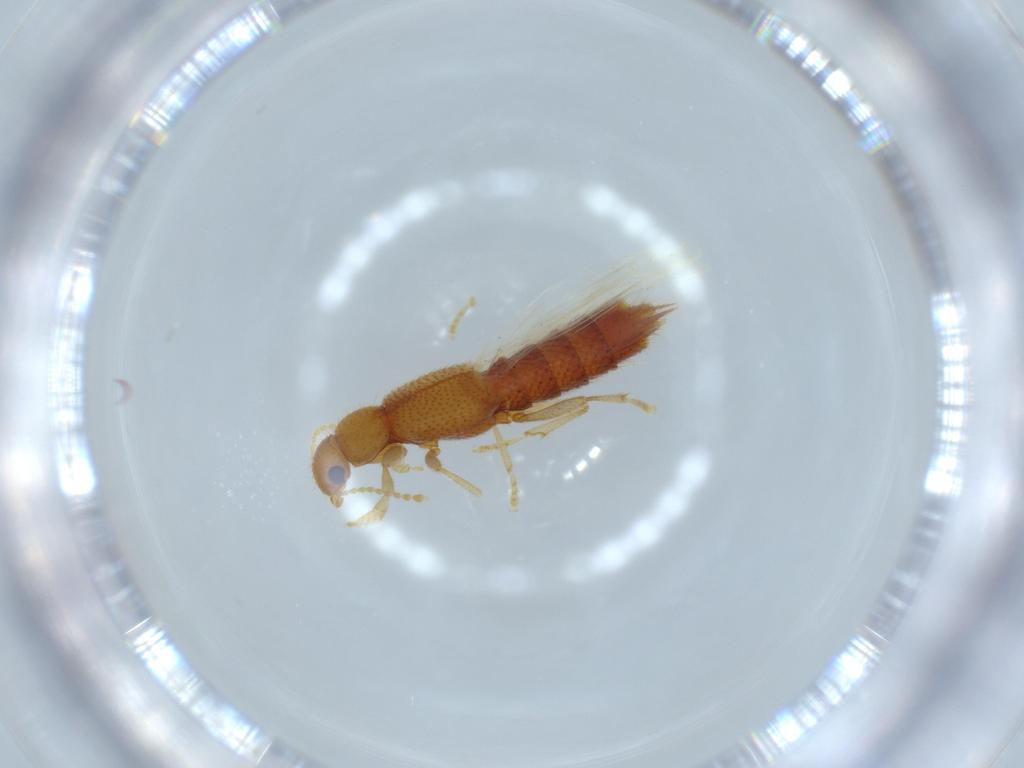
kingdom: Animalia
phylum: Arthropoda
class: Insecta
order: Coleoptera
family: Staphylinidae
